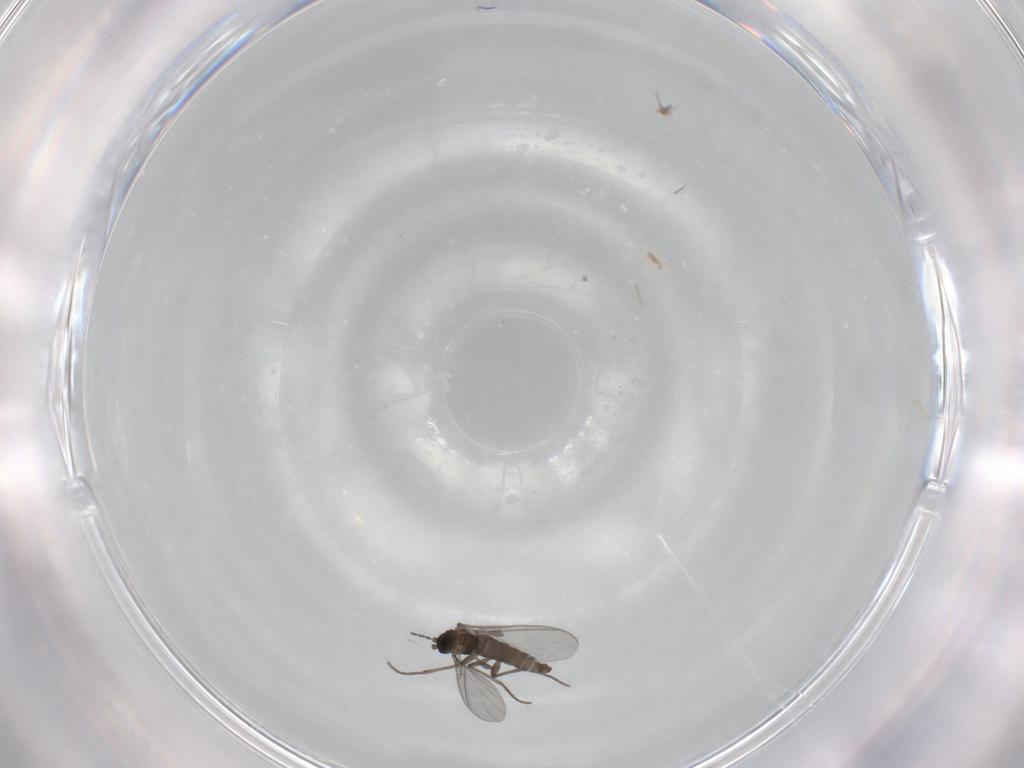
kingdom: Animalia
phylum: Arthropoda
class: Insecta
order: Diptera
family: Sciaridae
